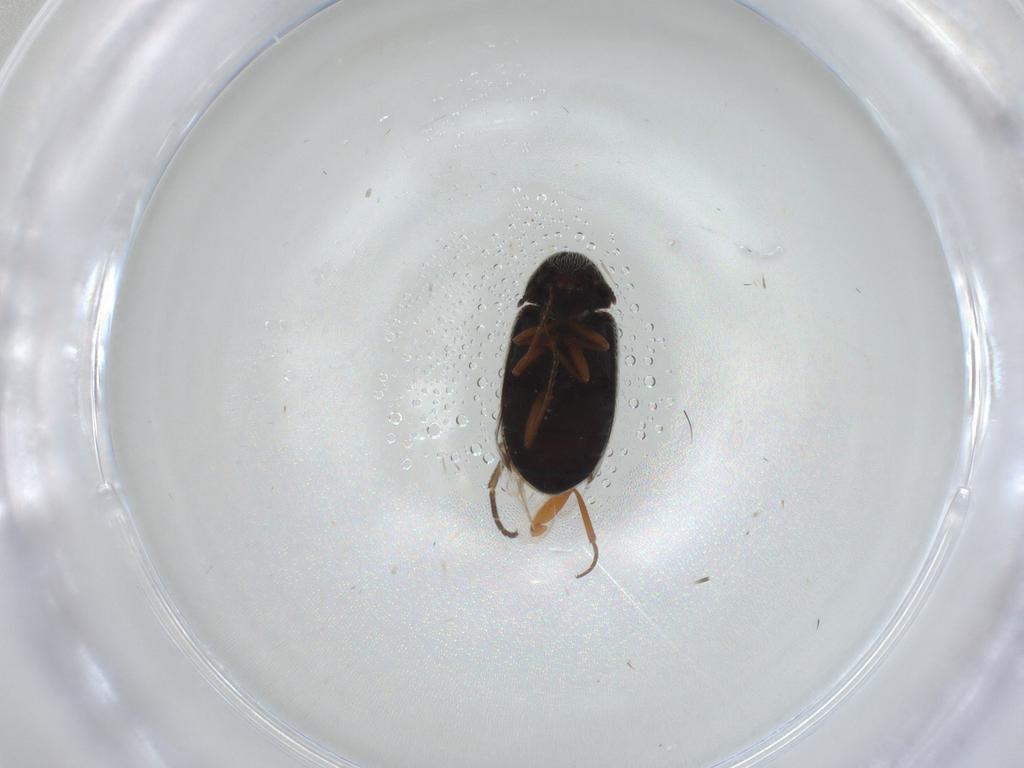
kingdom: Animalia
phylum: Arthropoda
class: Insecta
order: Coleoptera
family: Rhadalidae
